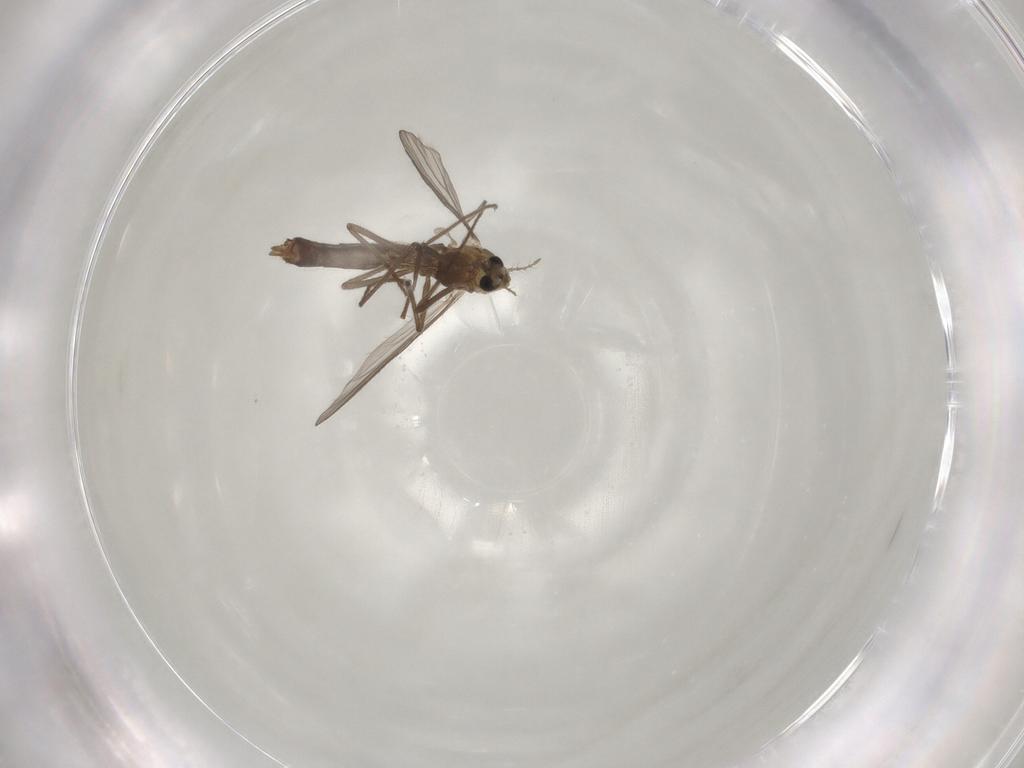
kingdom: Animalia
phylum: Arthropoda
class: Insecta
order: Diptera
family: Chironomidae
